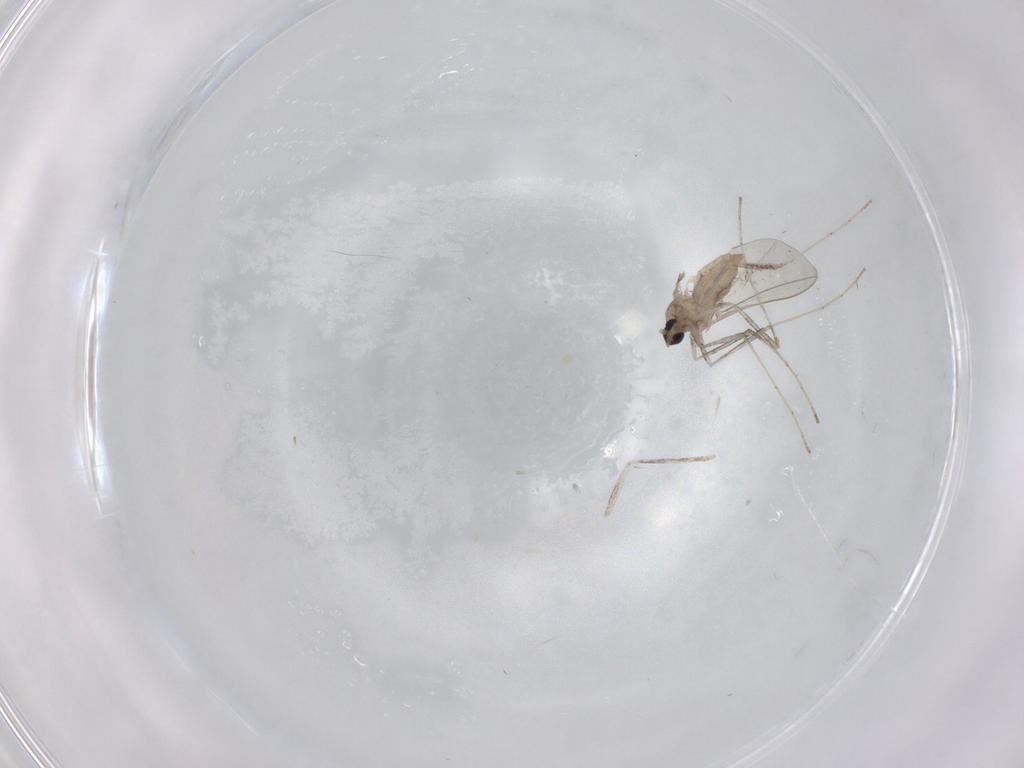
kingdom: Animalia
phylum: Arthropoda
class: Insecta
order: Diptera
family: Cecidomyiidae
